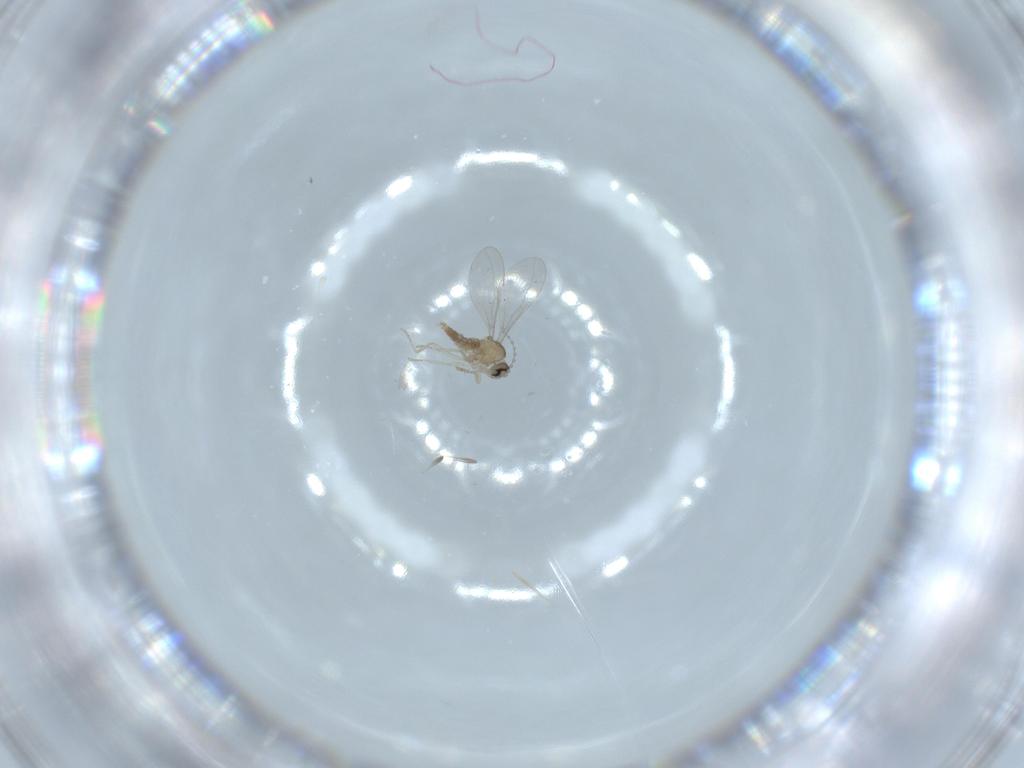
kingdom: Animalia
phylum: Arthropoda
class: Insecta
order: Diptera
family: Cecidomyiidae
